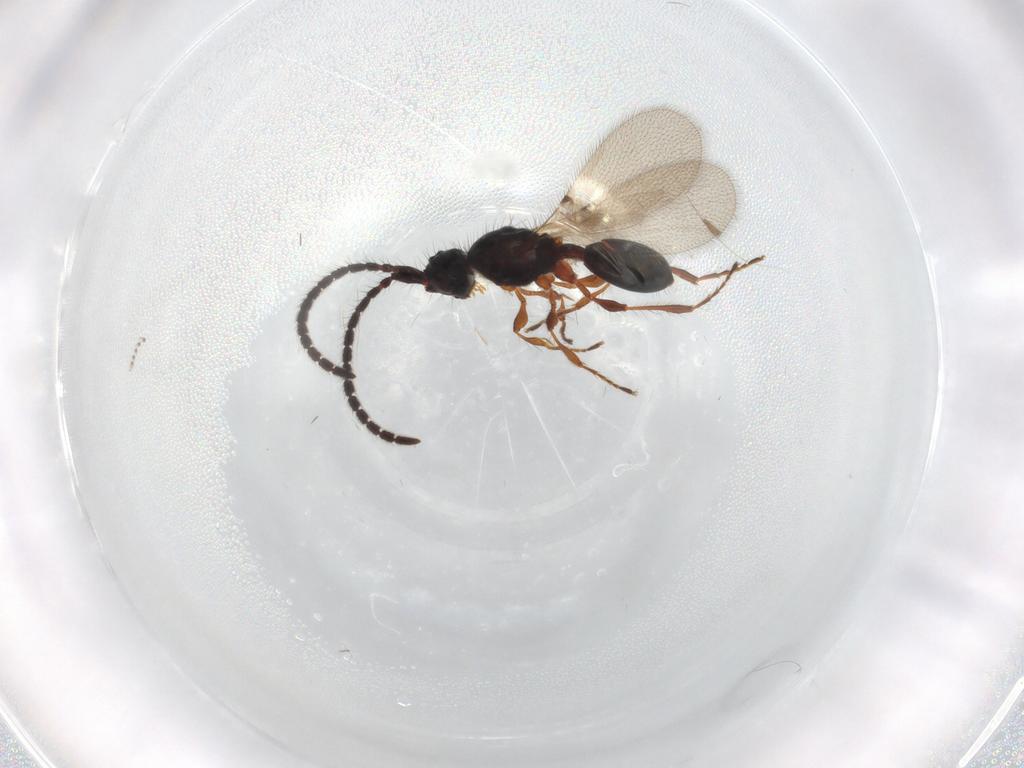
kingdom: Animalia
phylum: Arthropoda
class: Insecta
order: Hymenoptera
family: Diapriidae
